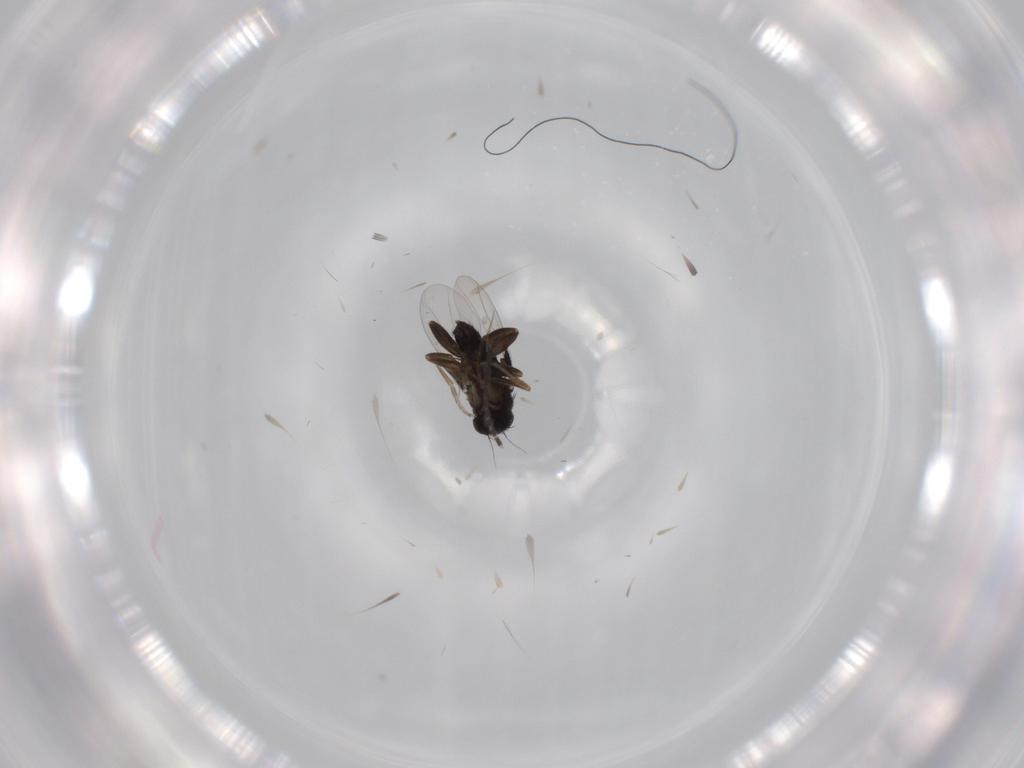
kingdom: Animalia
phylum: Arthropoda
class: Insecta
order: Diptera
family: Phoridae
